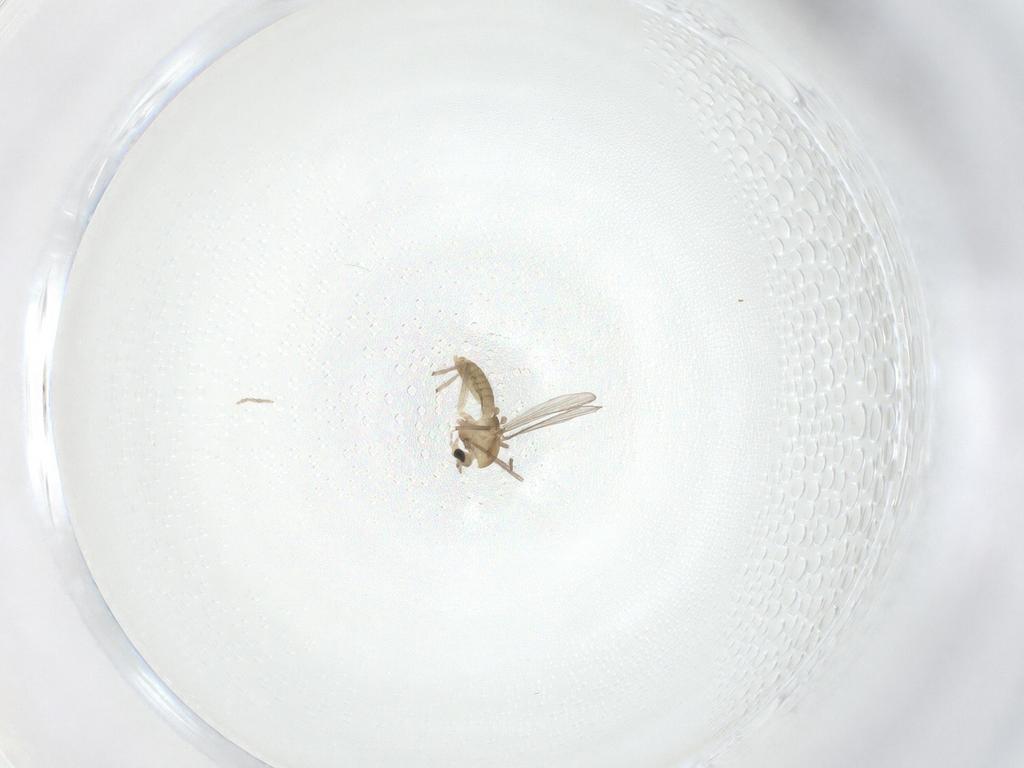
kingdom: Animalia
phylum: Arthropoda
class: Insecta
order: Diptera
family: Chironomidae
